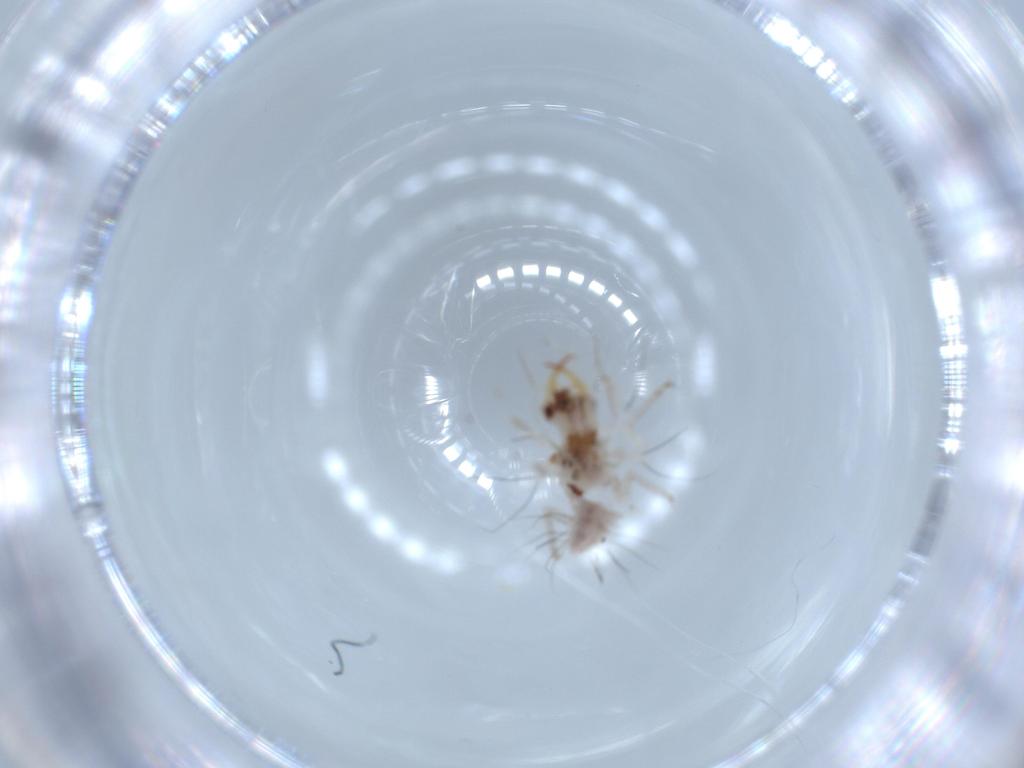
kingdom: Animalia
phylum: Arthropoda
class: Insecta
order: Neuroptera
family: Chrysopidae
